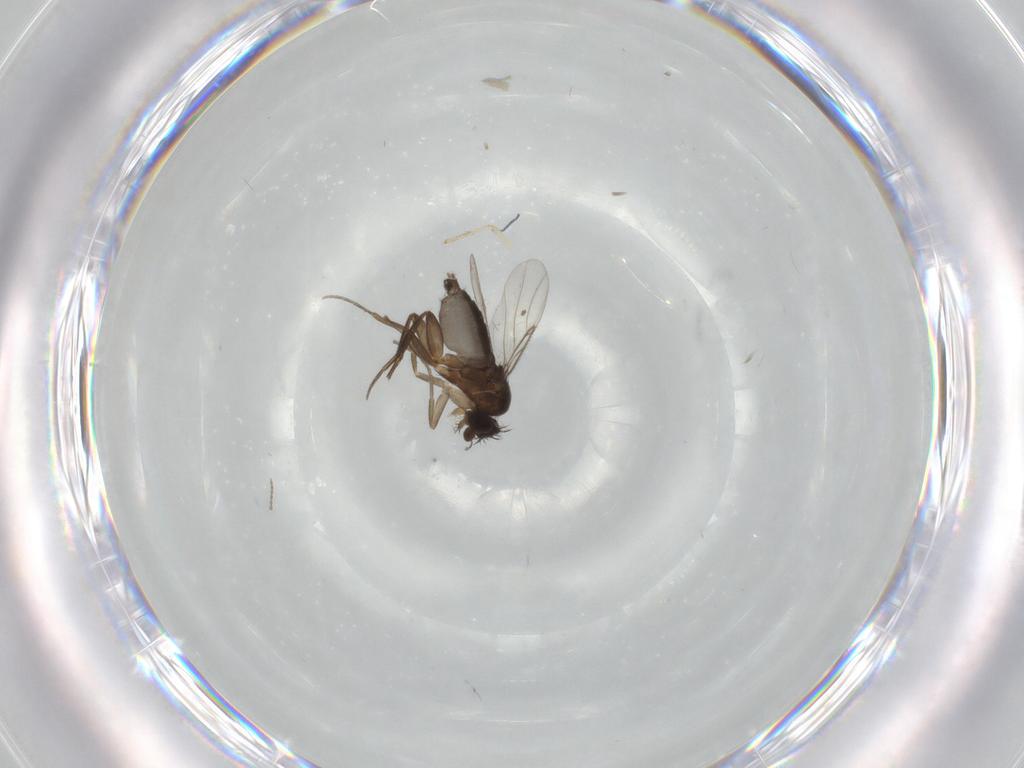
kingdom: Animalia
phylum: Arthropoda
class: Insecta
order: Diptera
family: Phoridae
